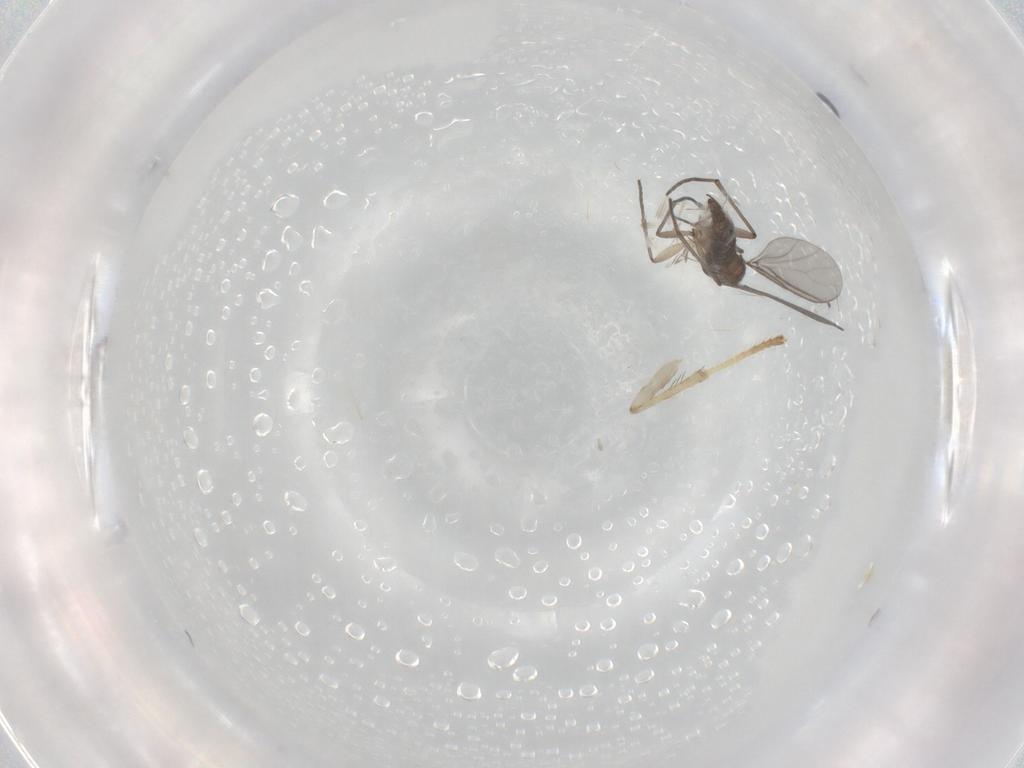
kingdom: Animalia
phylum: Arthropoda
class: Insecta
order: Diptera
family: Sciaridae
